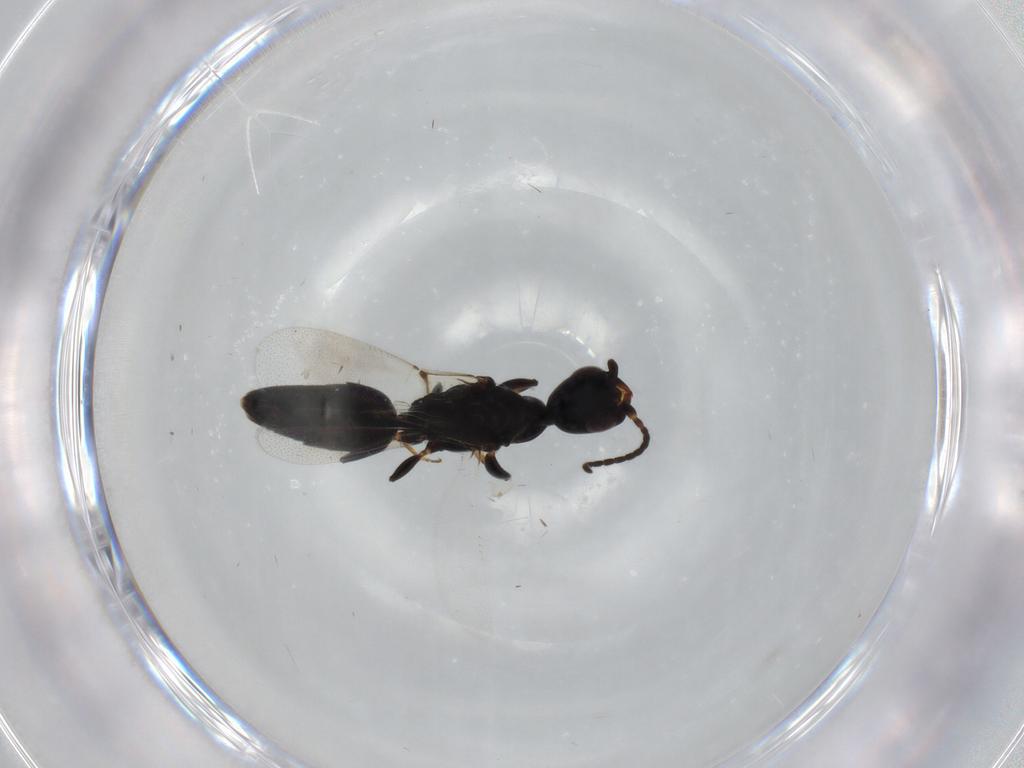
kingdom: Animalia
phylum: Arthropoda
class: Insecta
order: Hymenoptera
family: Bethylidae
